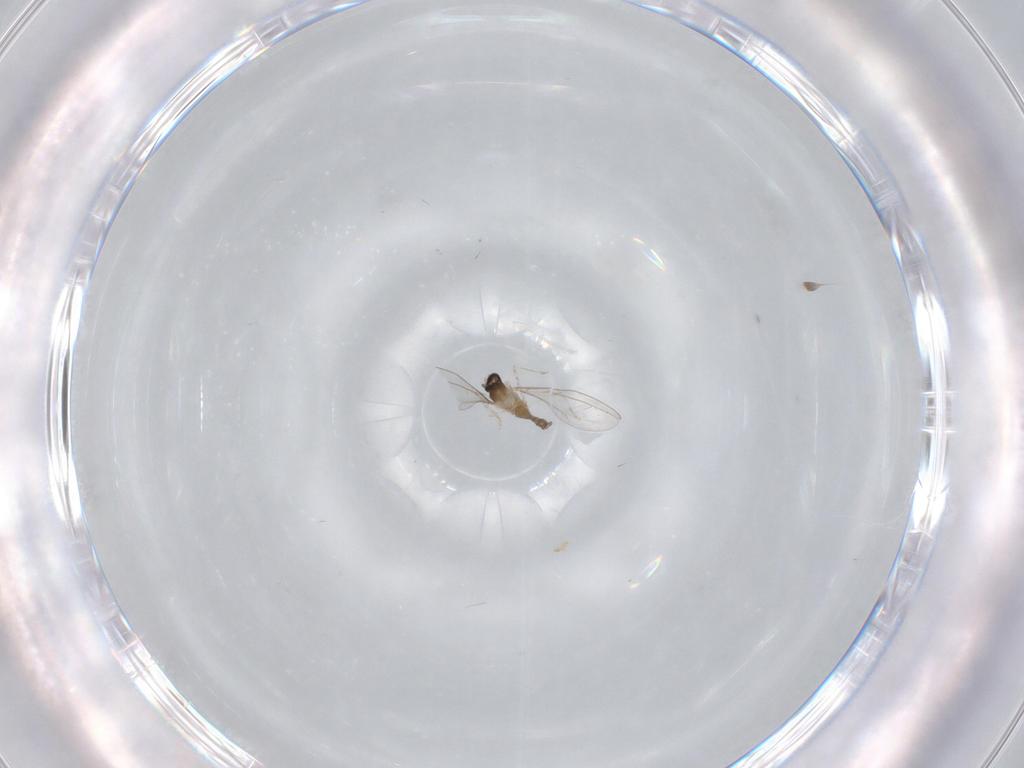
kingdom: Animalia
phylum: Arthropoda
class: Insecta
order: Diptera
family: Cecidomyiidae
